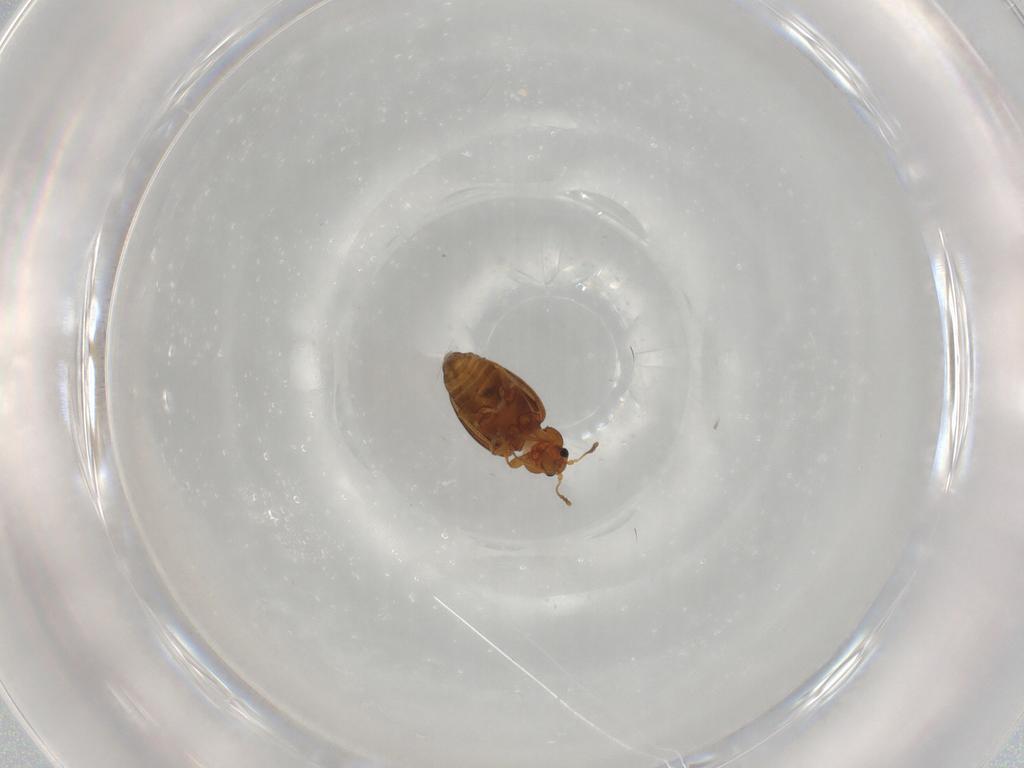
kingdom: Animalia
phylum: Arthropoda
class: Insecta
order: Coleoptera
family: Latridiidae
